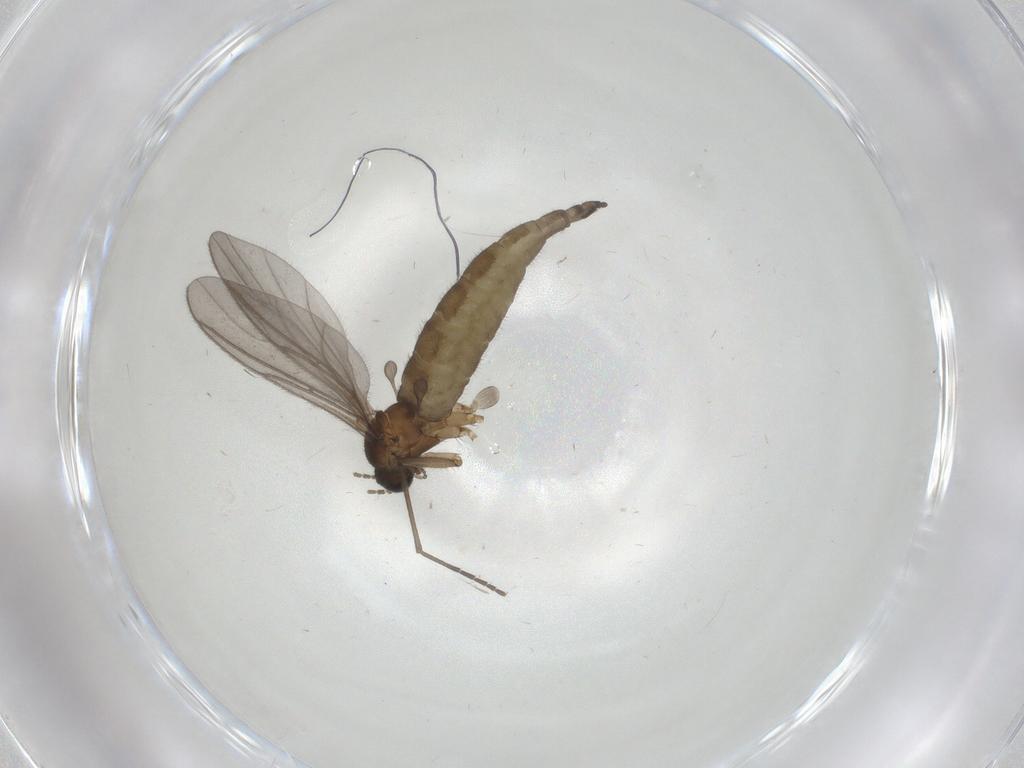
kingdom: Animalia
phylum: Arthropoda
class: Insecta
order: Diptera
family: Sciaridae
